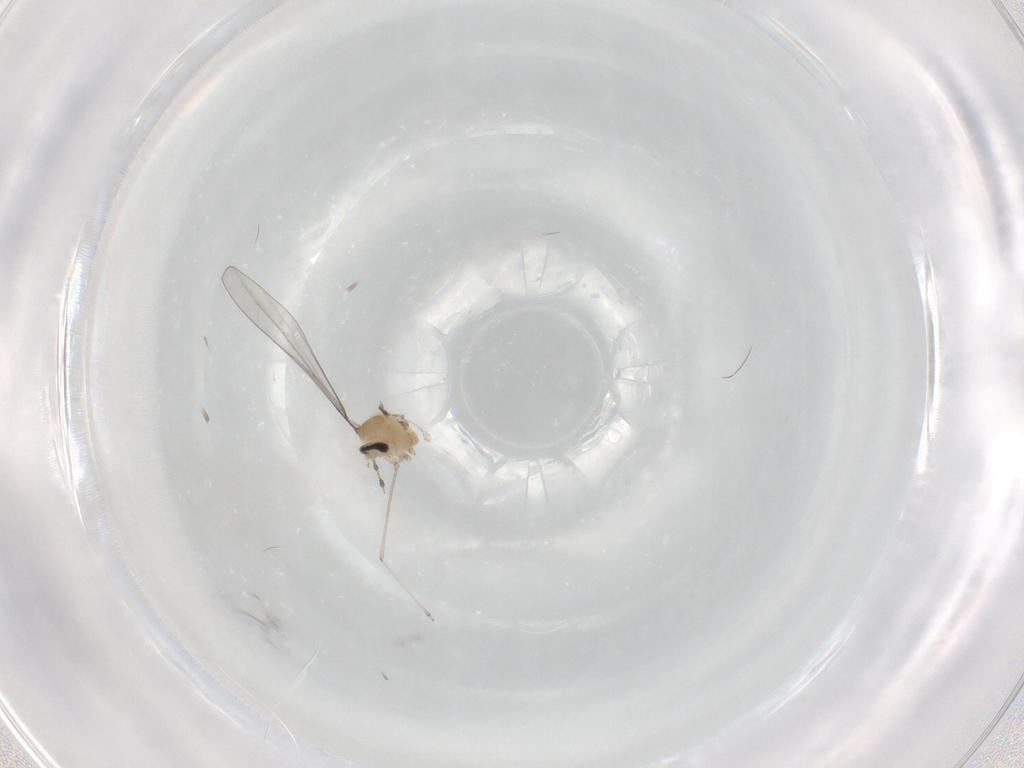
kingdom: Animalia
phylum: Arthropoda
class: Insecta
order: Diptera
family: Cecidomyiidae
